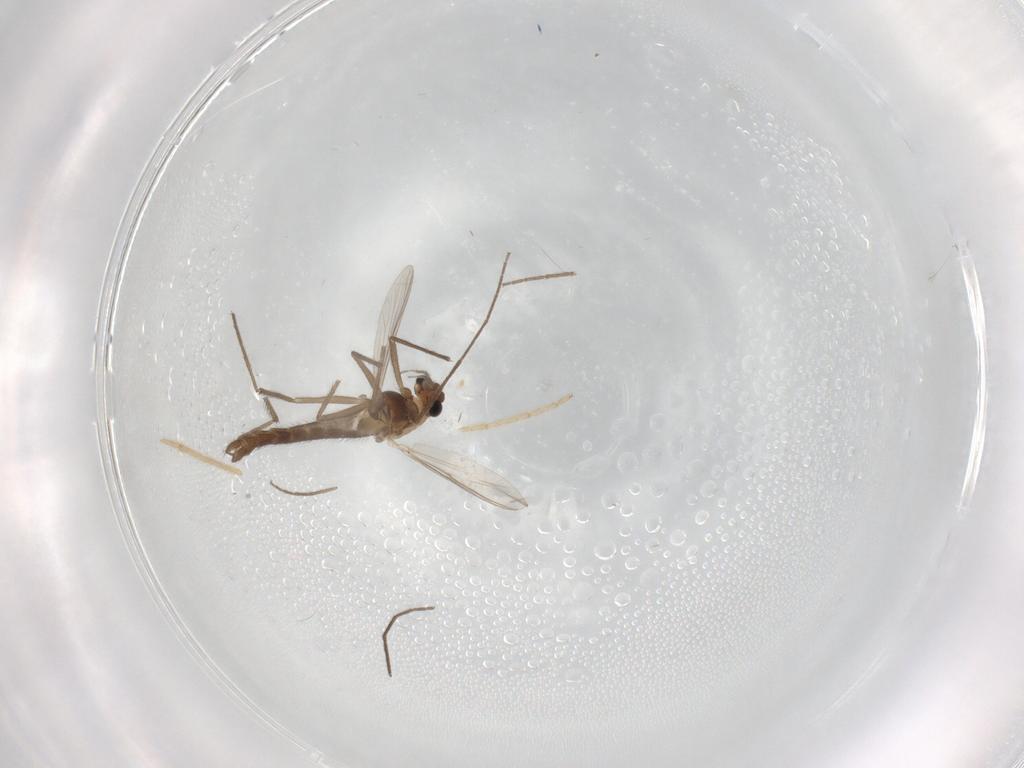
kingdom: Animalia
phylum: Arthropoda
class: Insecta
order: Diptera
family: Chironomidae
